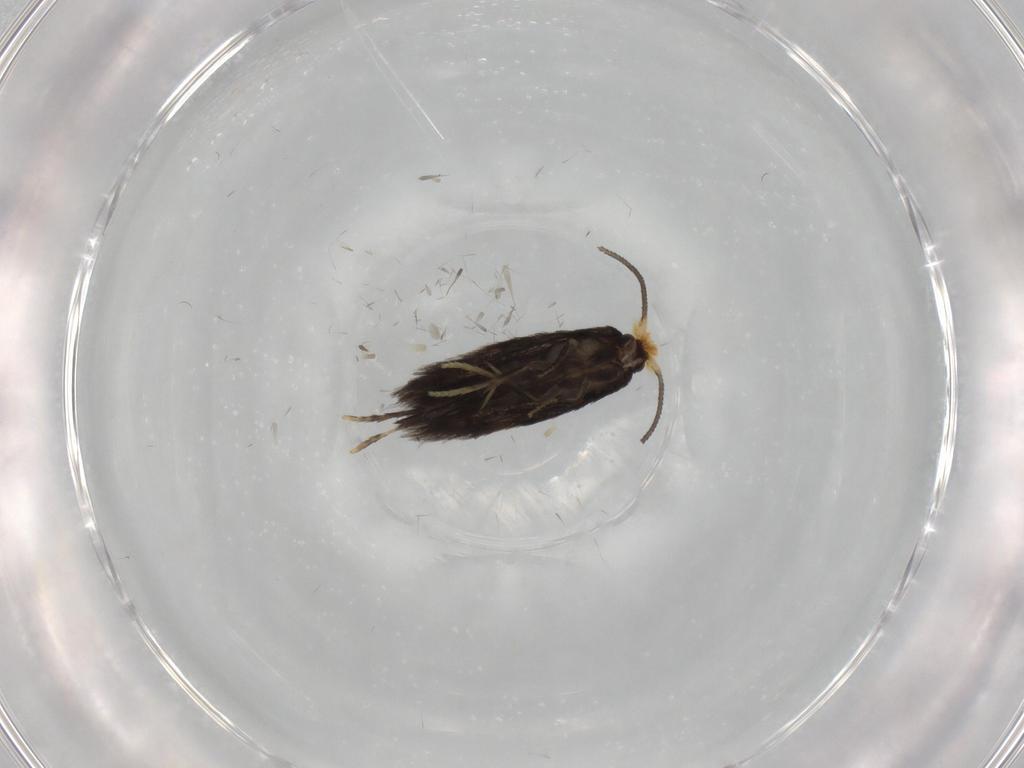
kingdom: Animalia
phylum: Arthropoda
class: Insecta
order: Lepidoptera
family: Nepticulidae
